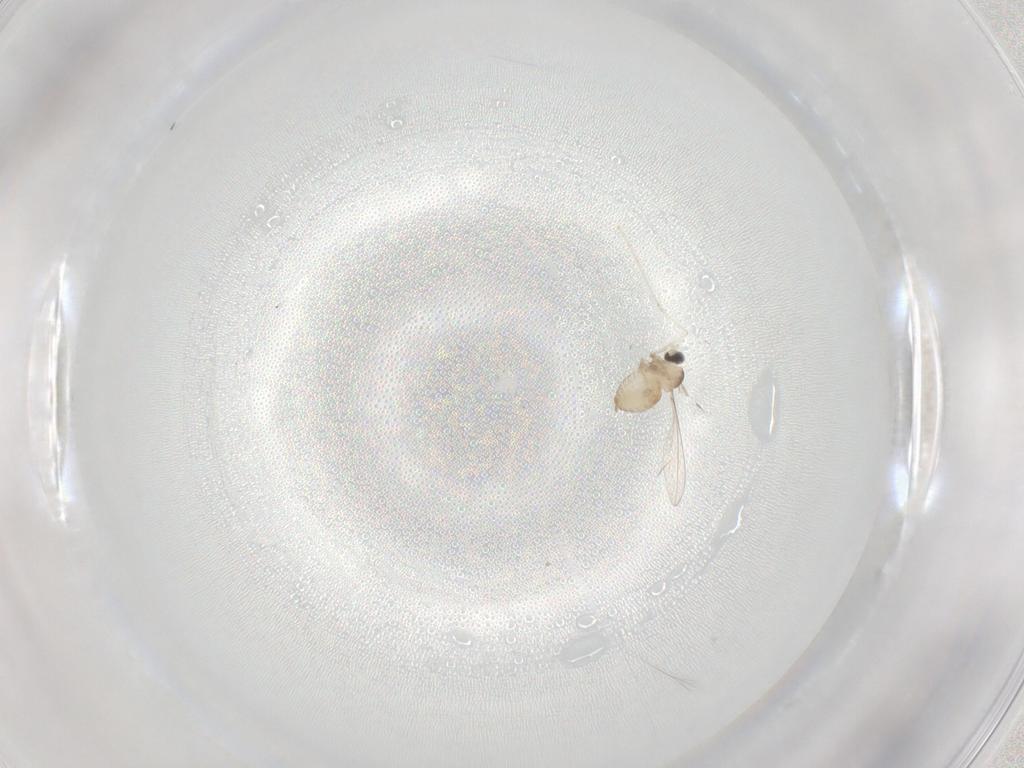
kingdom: Animalia
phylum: Arthropoda
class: Insecta
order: Diptera
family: Cecidomyiidae
